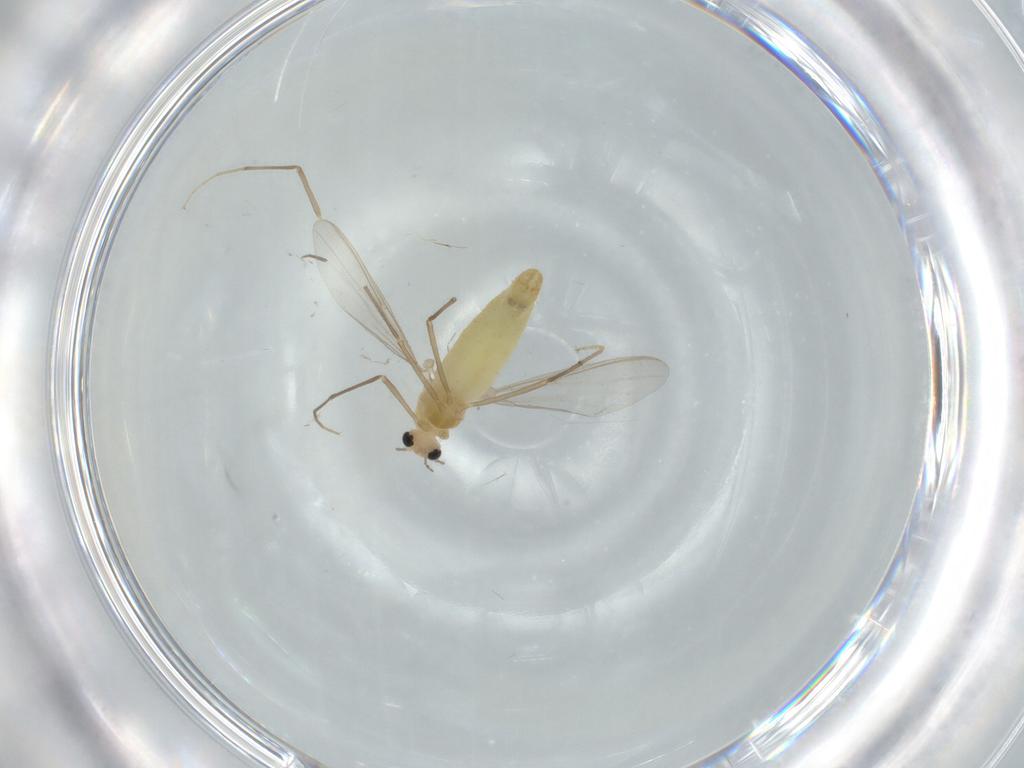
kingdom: Animalia
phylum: Arthropoda
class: Insecta
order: Diptera
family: Chironomidae
